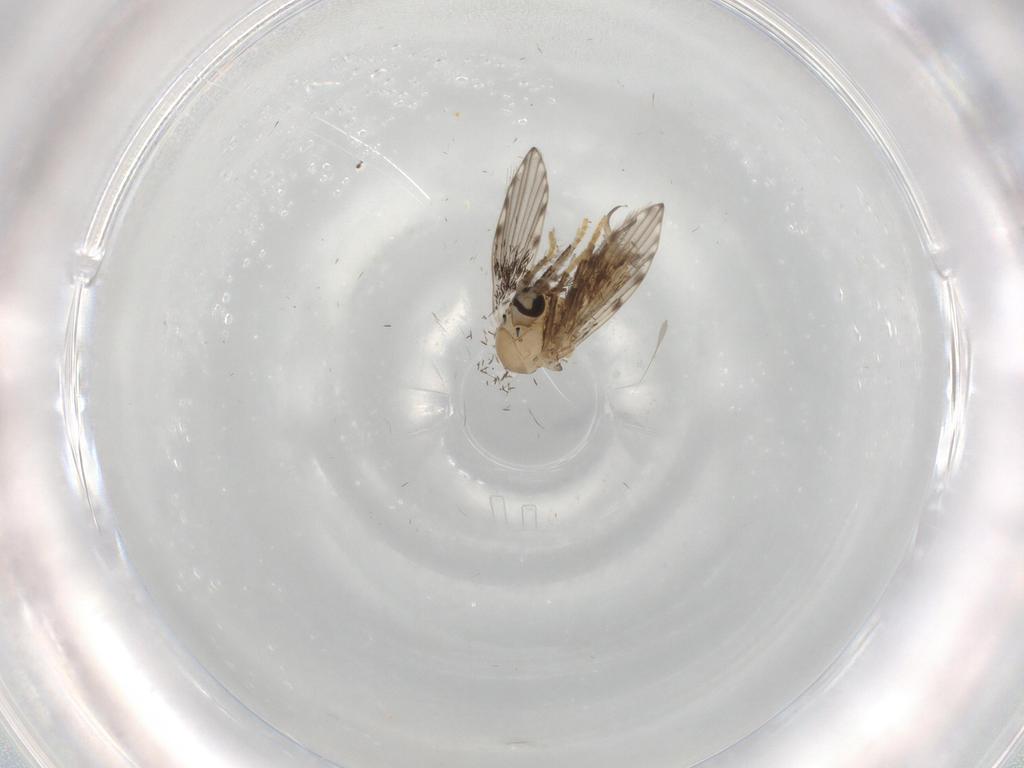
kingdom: Animalia
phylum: Arthropoda
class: Insecta
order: Diptera
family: Psychodidae
